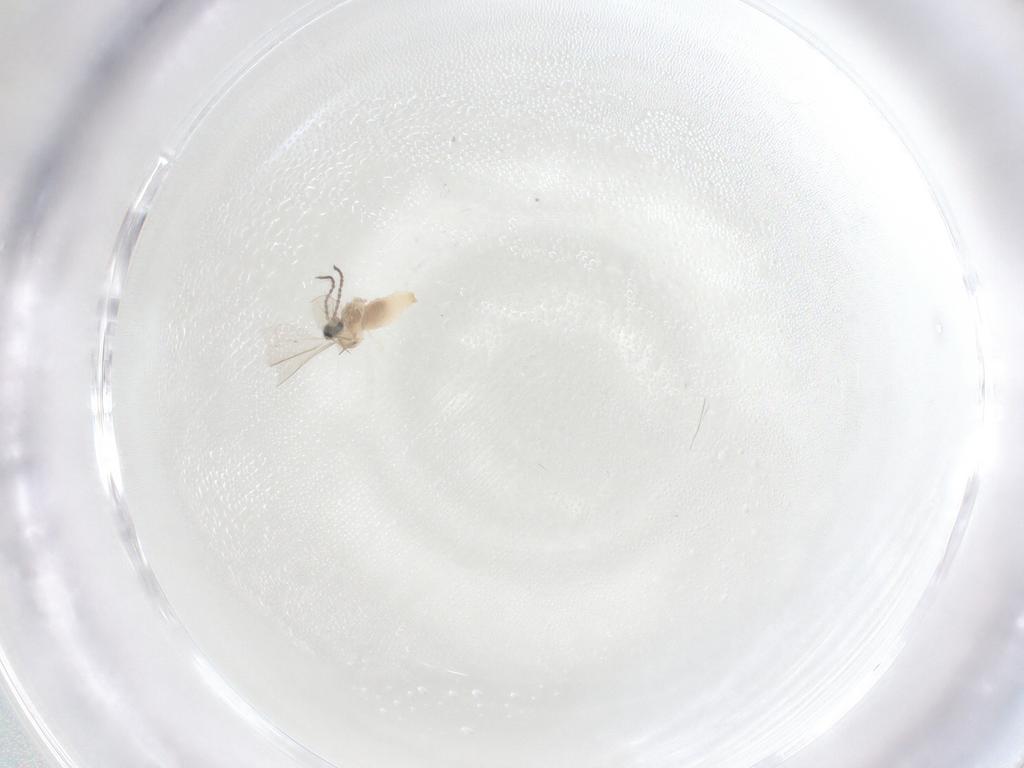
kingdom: Animalia
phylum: Arthropoda
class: Insecta
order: Diptera
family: Cecidomyiidae
